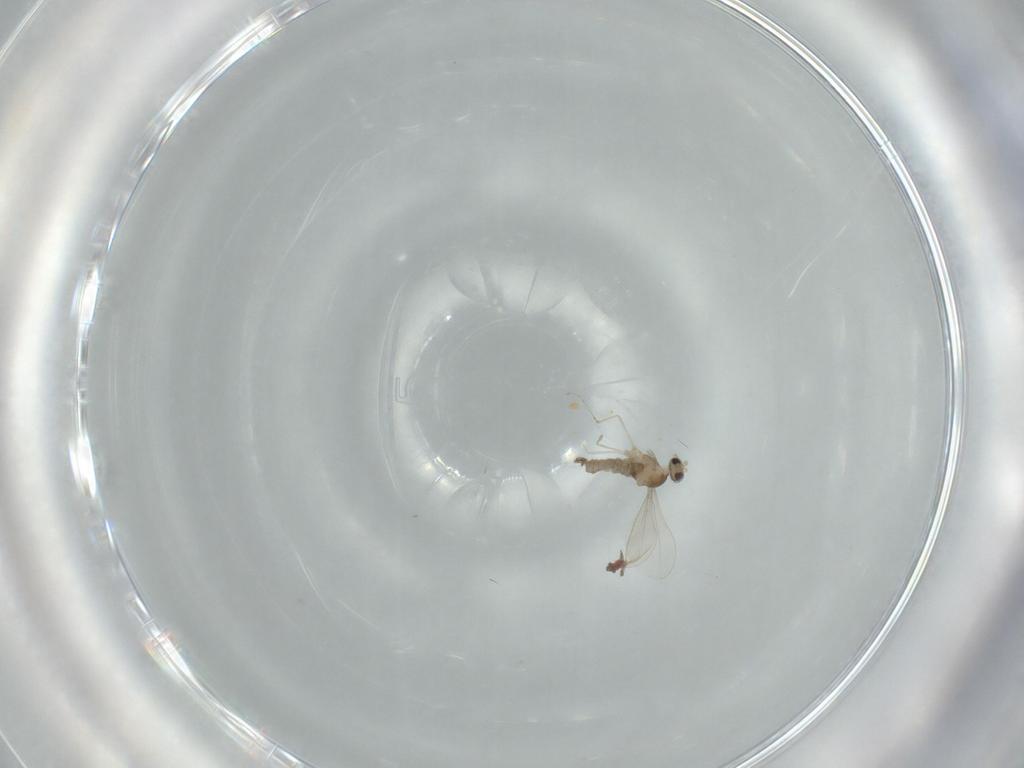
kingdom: Animalia
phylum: Arthropoda
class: Insecta
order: Diptera
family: Cecidomyiidae
